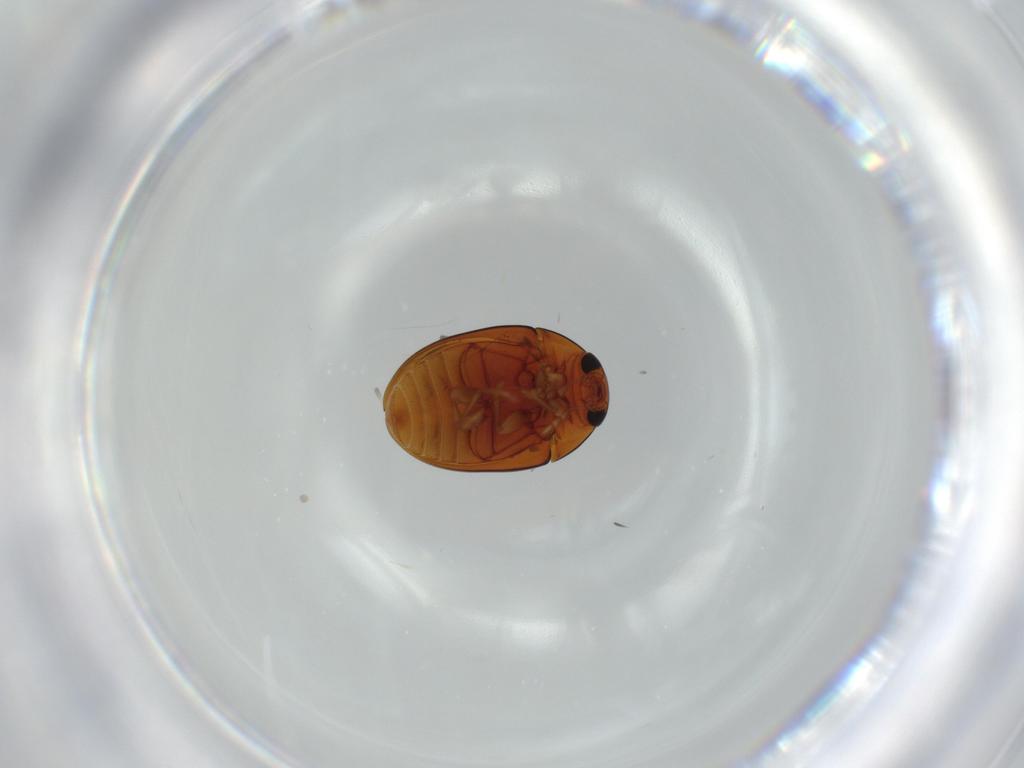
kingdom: Animalia
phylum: Arthropoda
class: Insecta
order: Coleoptera
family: Phalacridae
